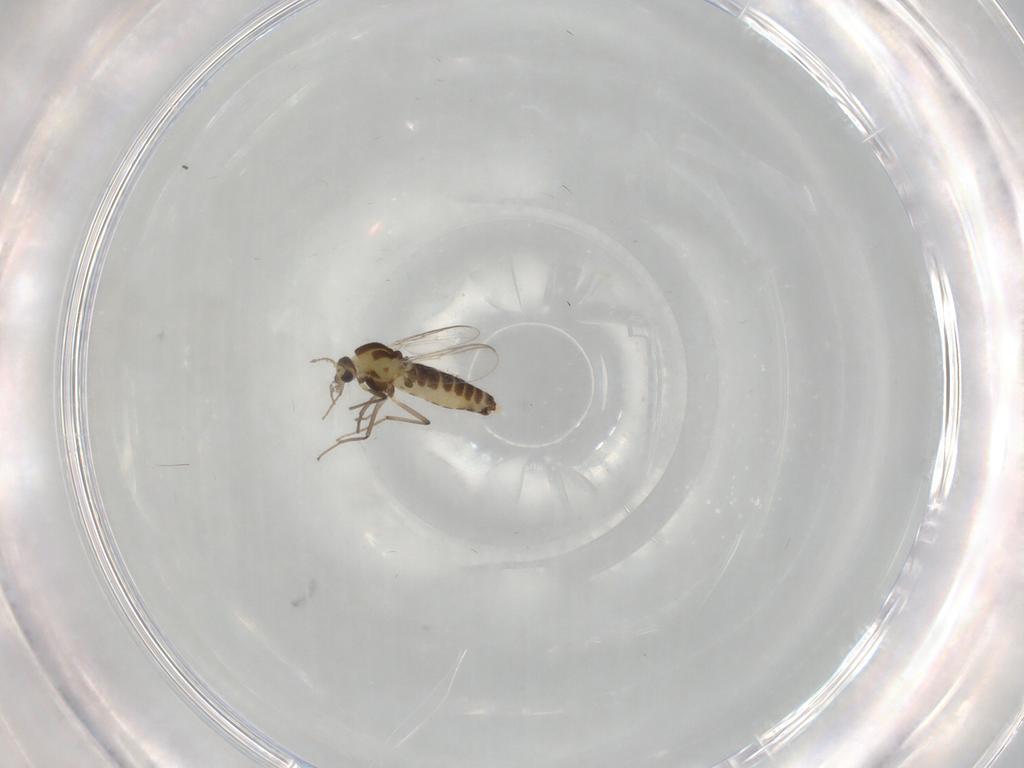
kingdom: Animalia
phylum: Arthropoda
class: Insecta
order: Diptera
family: Chironomidae
